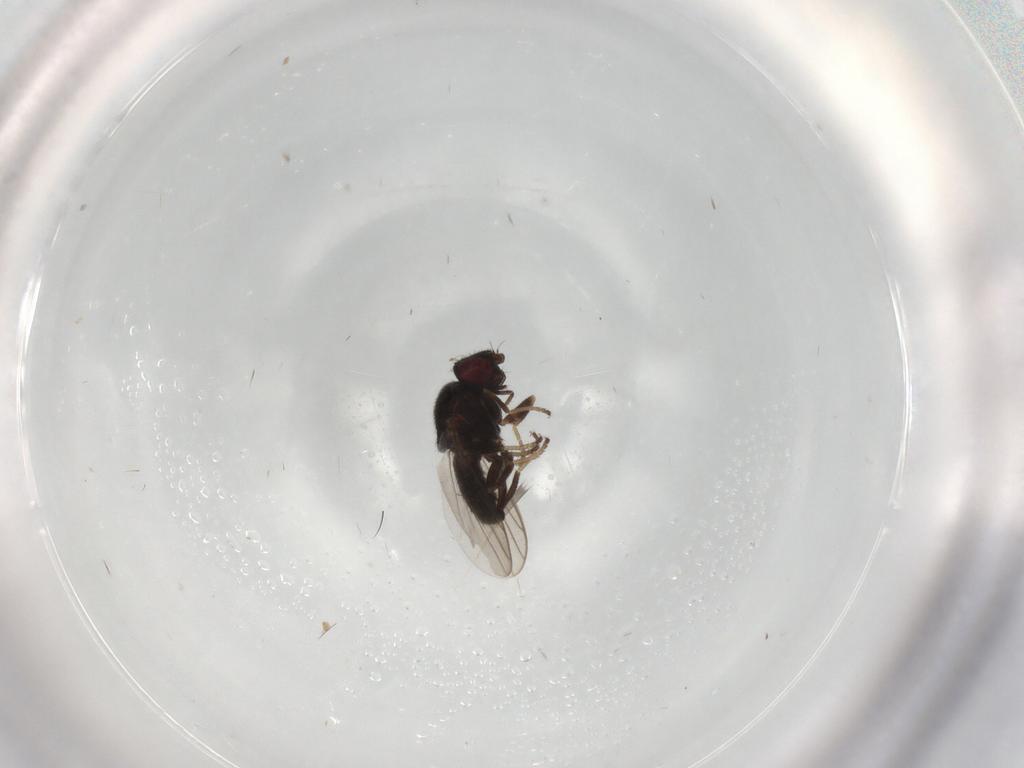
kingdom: Animalia
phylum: Arthropoda
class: Insecta
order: Diptera
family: Chloropidae
